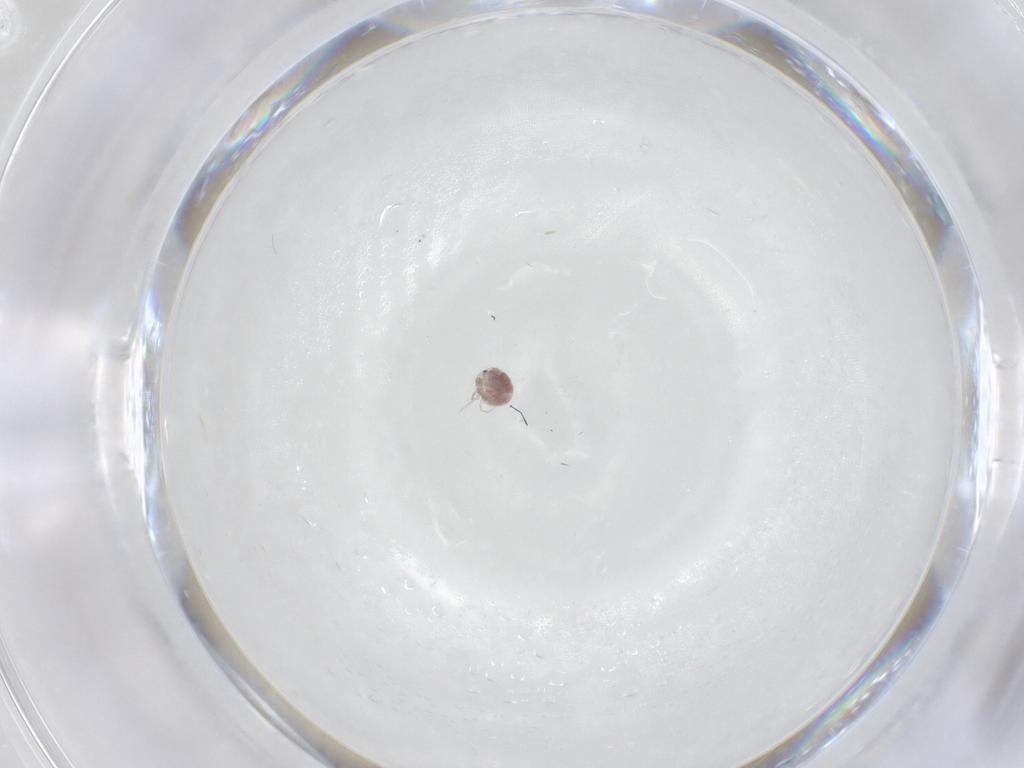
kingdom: Animalia
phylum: Arthropoda
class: Arachnida
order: Trombidiformes
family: Pionidae
